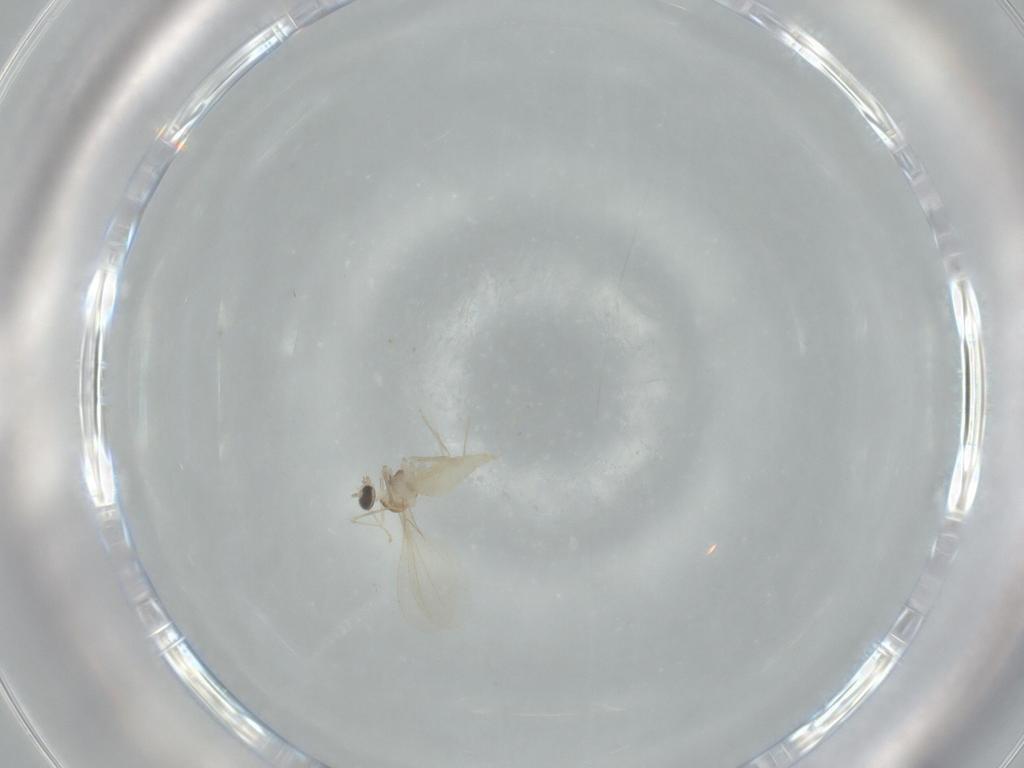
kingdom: Animalia
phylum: Arthropoda
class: Insecta
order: Diptera
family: Cecidomyiidae
